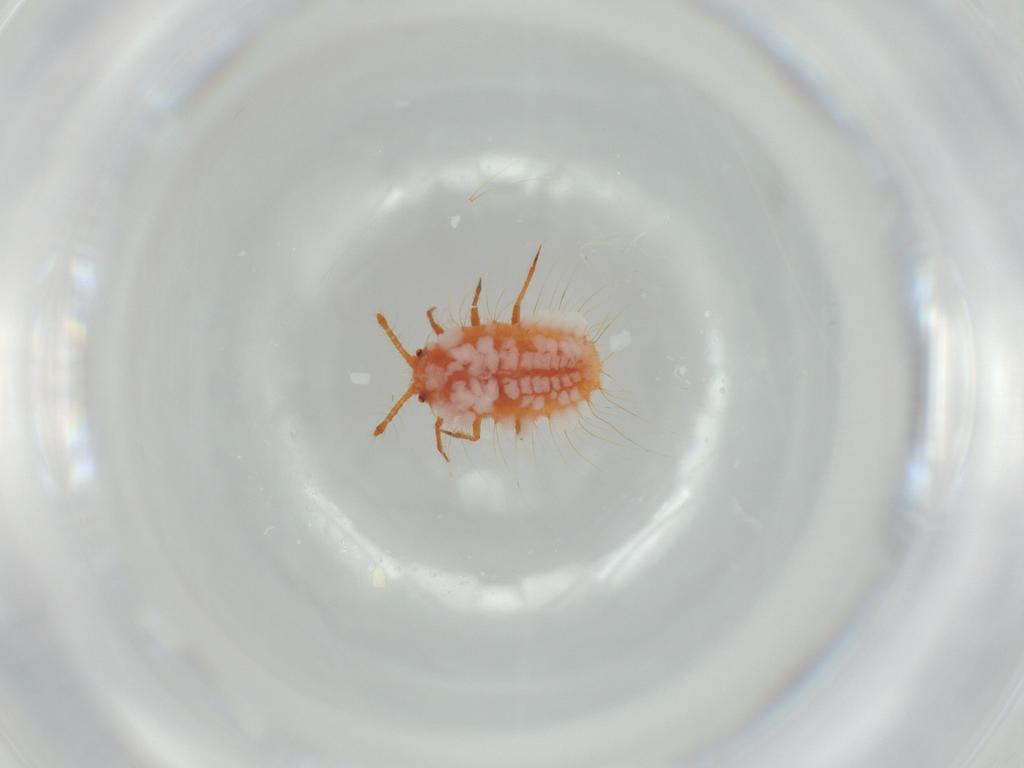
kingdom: Animalia
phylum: Arthropoda
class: Insecta
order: Hemiptera
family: Coccoidea_incertae_sedis
